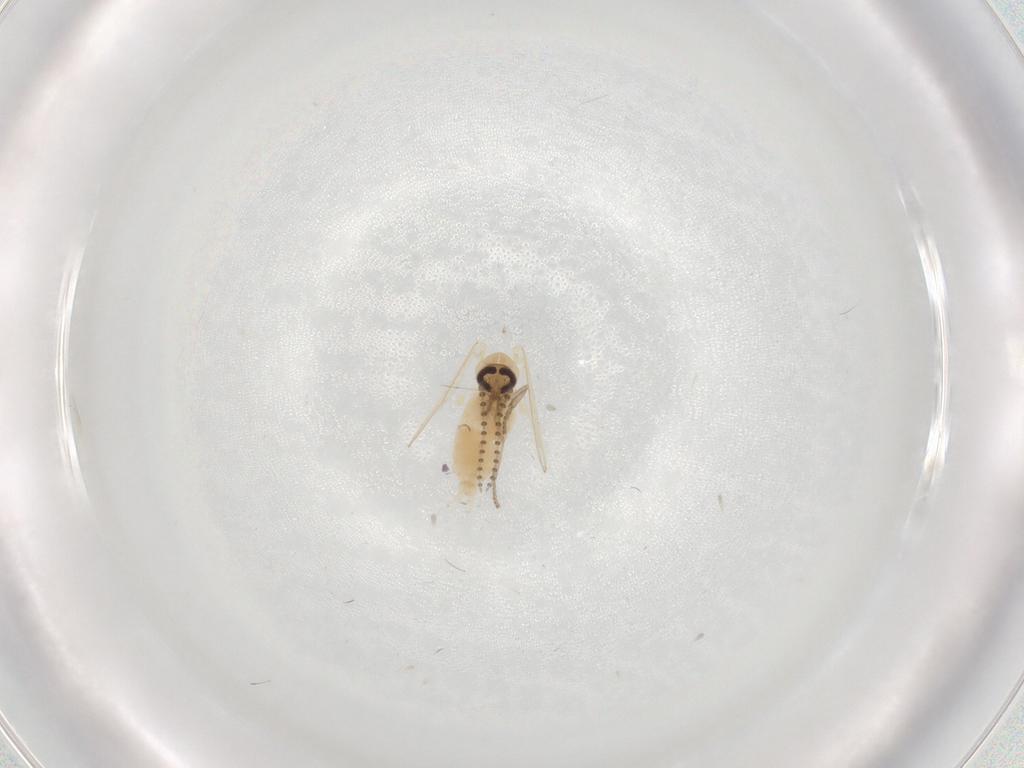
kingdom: Animalia
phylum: Arthropoda
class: Insecta
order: Diptera
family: Psychodidae
